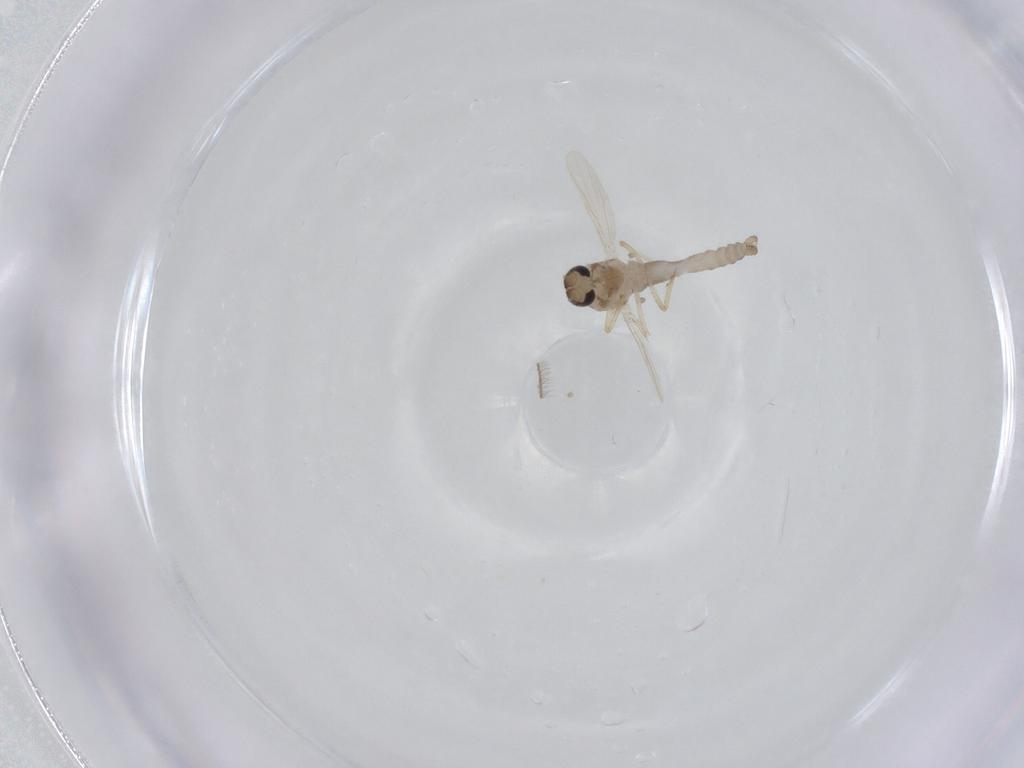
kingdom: Animalia
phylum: Arthropoda
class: Insecta
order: Diptera
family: Ceratopogonidae
